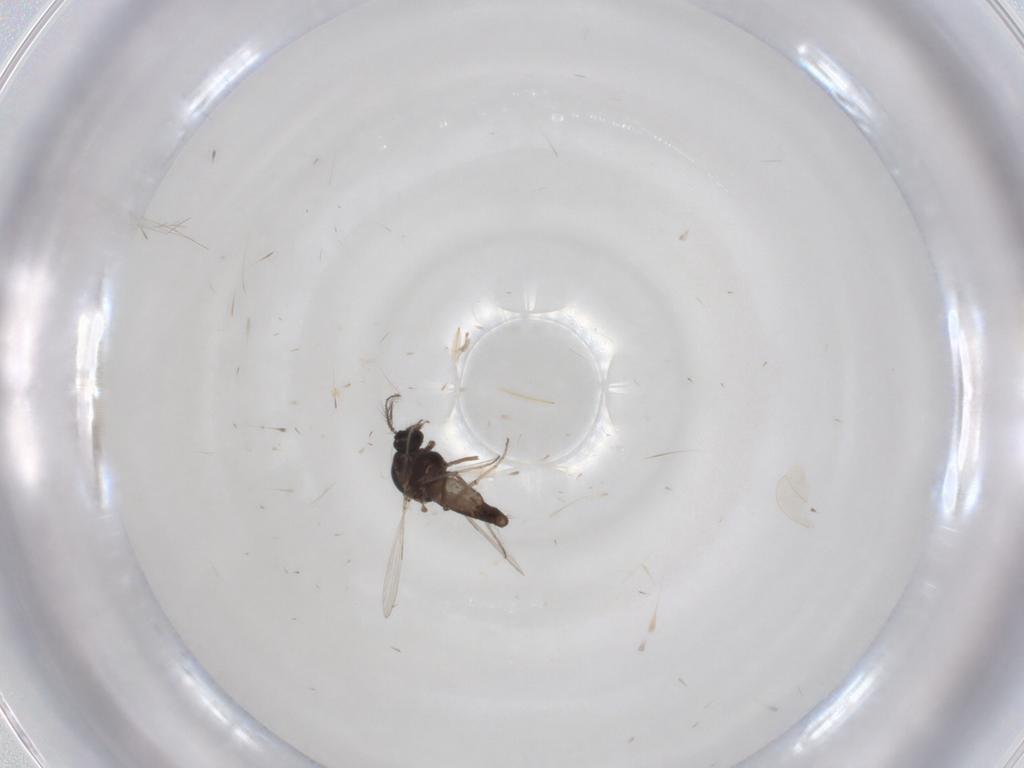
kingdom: Animalia
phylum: Arthropoda
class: Insecta
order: Diptera
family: Ceratopogonidae
